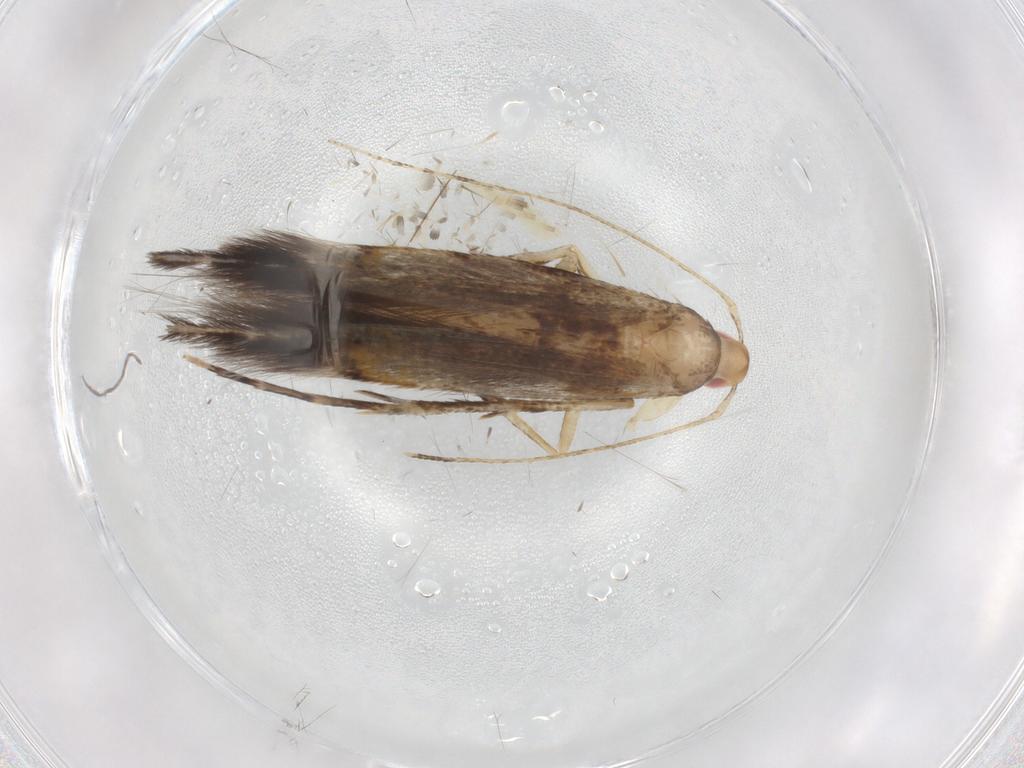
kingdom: Animalia
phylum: Arthropoda
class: Insecta
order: Lepidoptera
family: Cosmopterigidae
